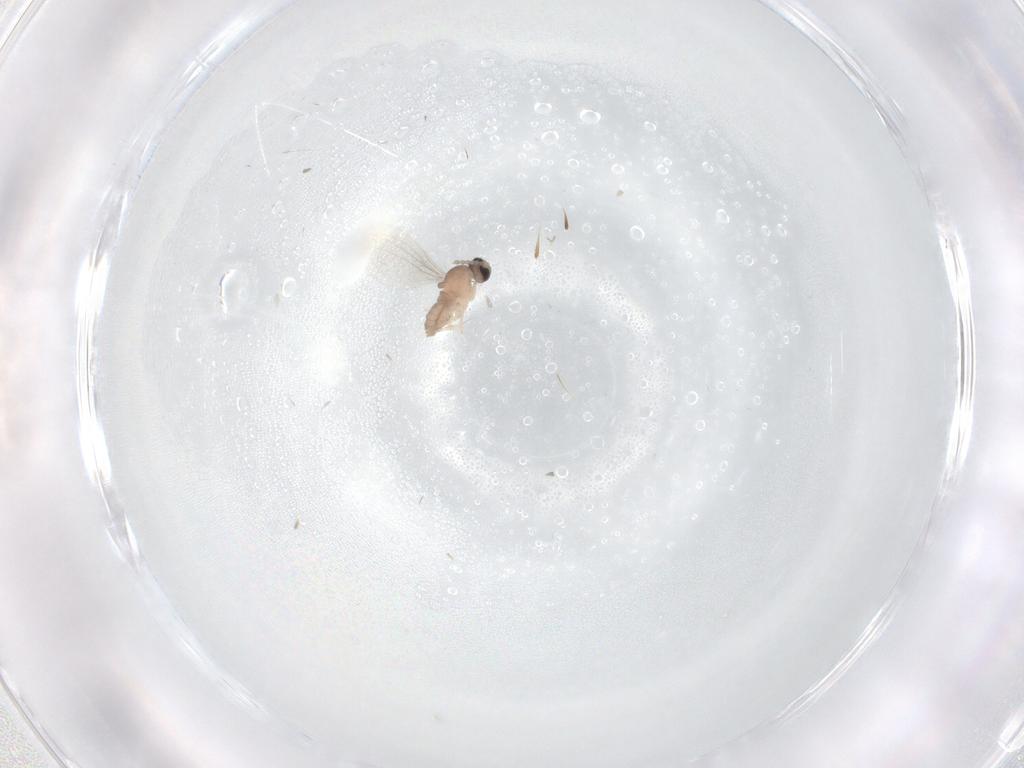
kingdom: Animalia
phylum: Arthropoda
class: Insecta
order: Diptera
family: Cecidomyiidae
